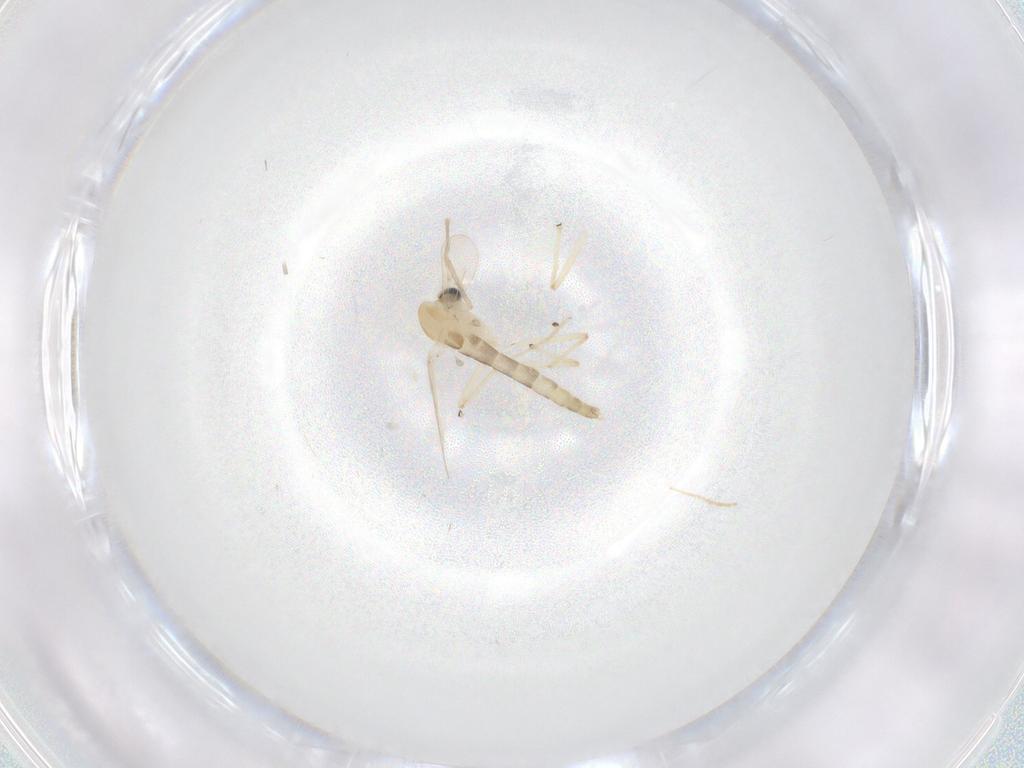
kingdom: Animalia
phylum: Arthropoda
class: Insecta
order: Diptera
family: Chironomidae
